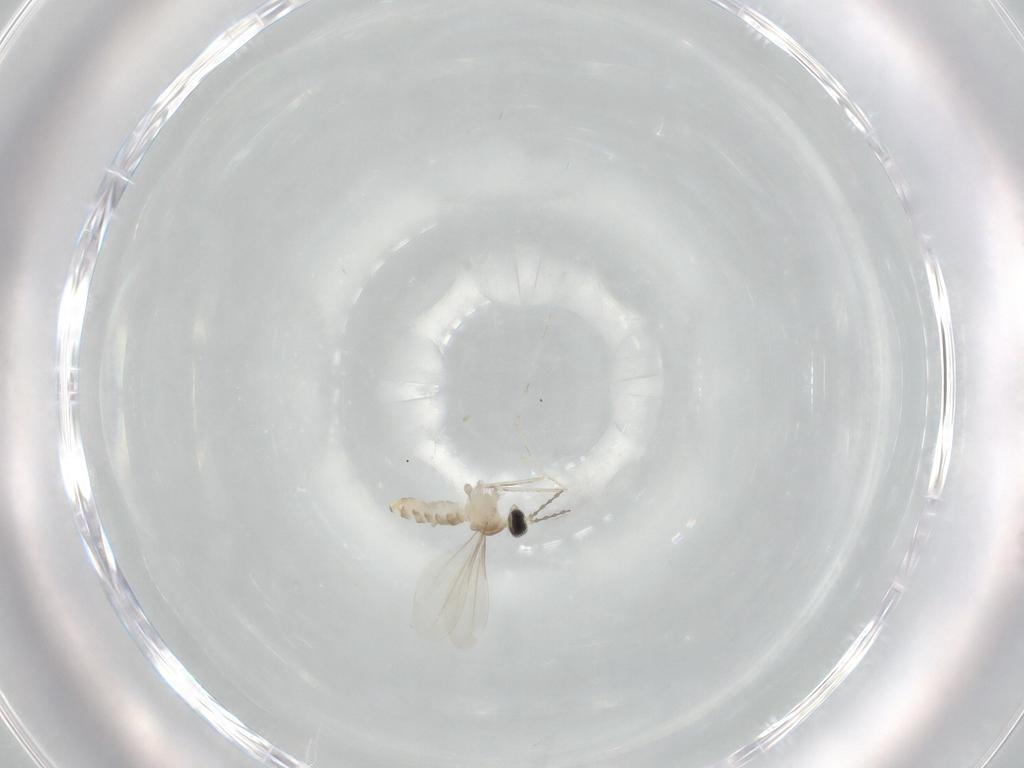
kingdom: Animalia
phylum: Arthropoda
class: Insecta
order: Diptera
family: Cecidomyiidae
